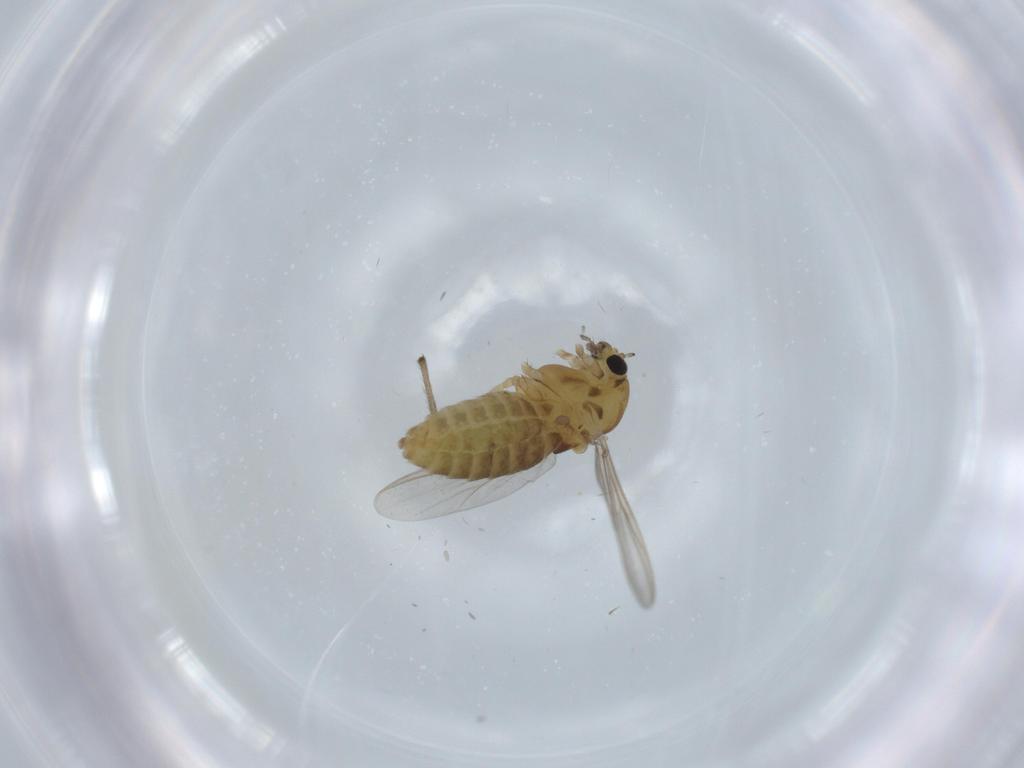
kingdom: Animalia
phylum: Arthropoda
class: Insecta
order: Diptera
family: Chironomidae
